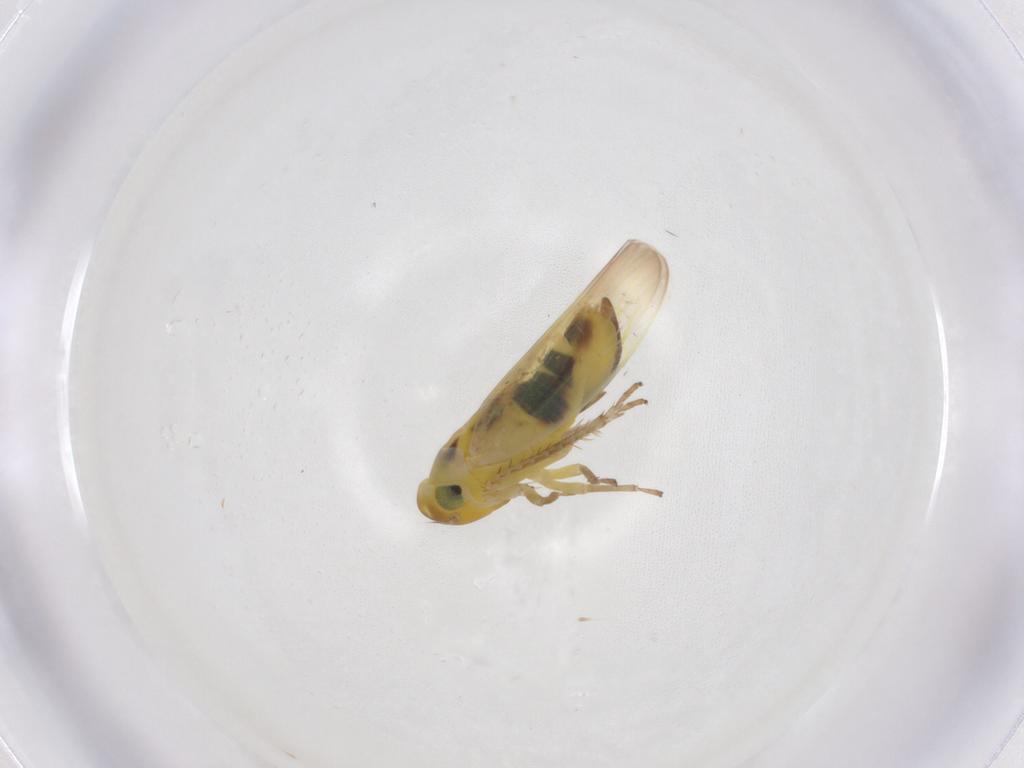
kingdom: Animalia
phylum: Arthropoda
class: Insecta
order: Hemiptera
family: Cicadellidae
